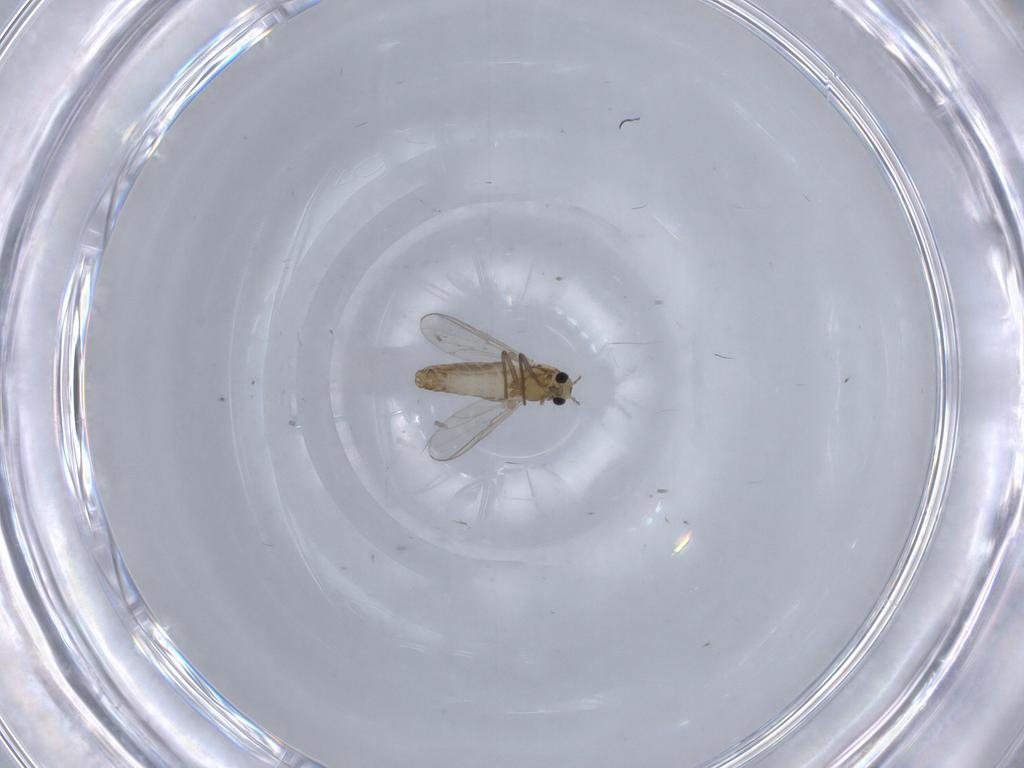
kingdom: Animalia
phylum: Arthropoda
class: Insecta
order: Diptera
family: Chironomidae
